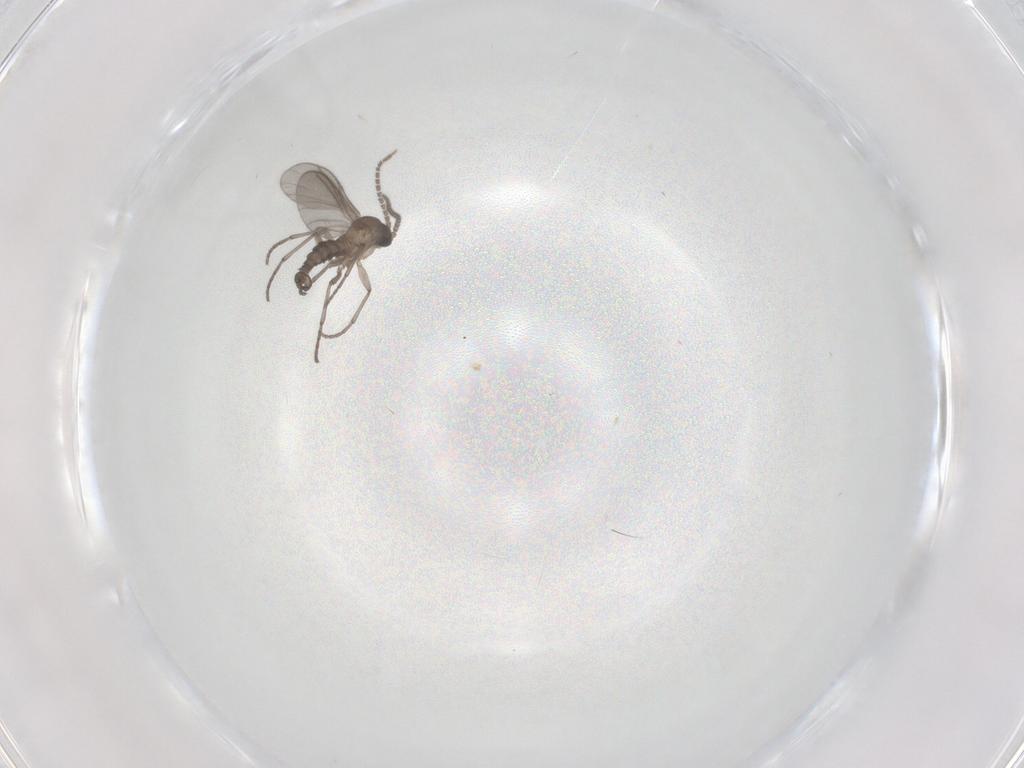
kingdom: Animalia
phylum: Arthropoda
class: Insecta
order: Diptera
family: Sciaridae
